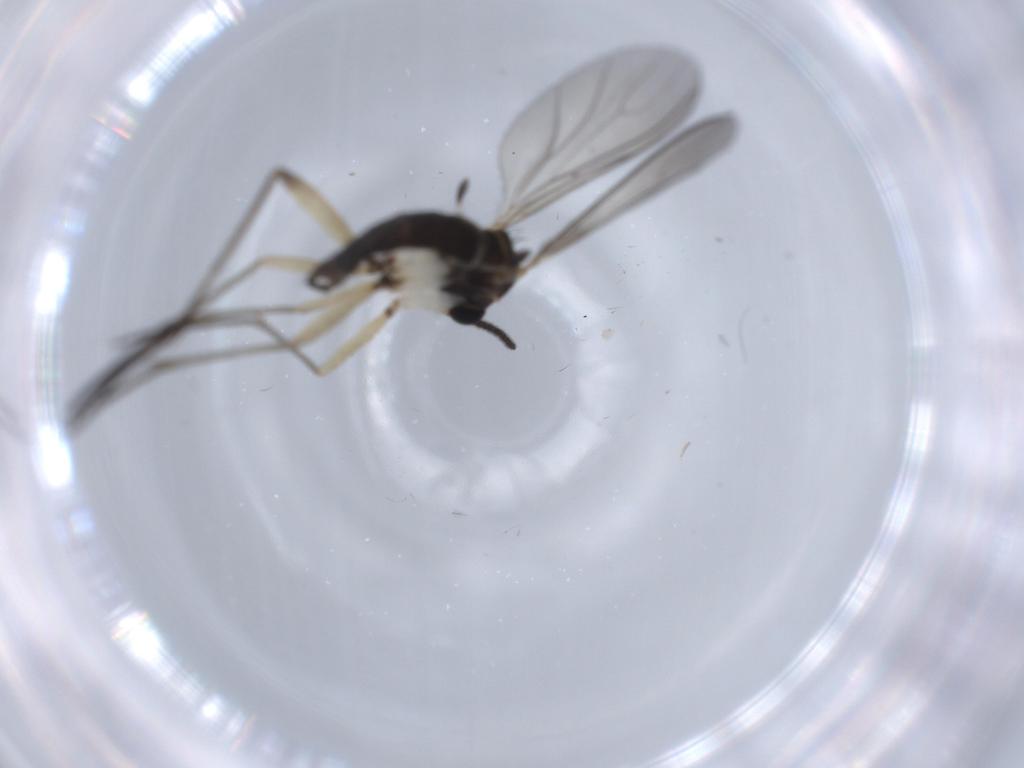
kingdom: Animalia
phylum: Arthropoda
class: Insecta
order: Diptera
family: Sciaridae
